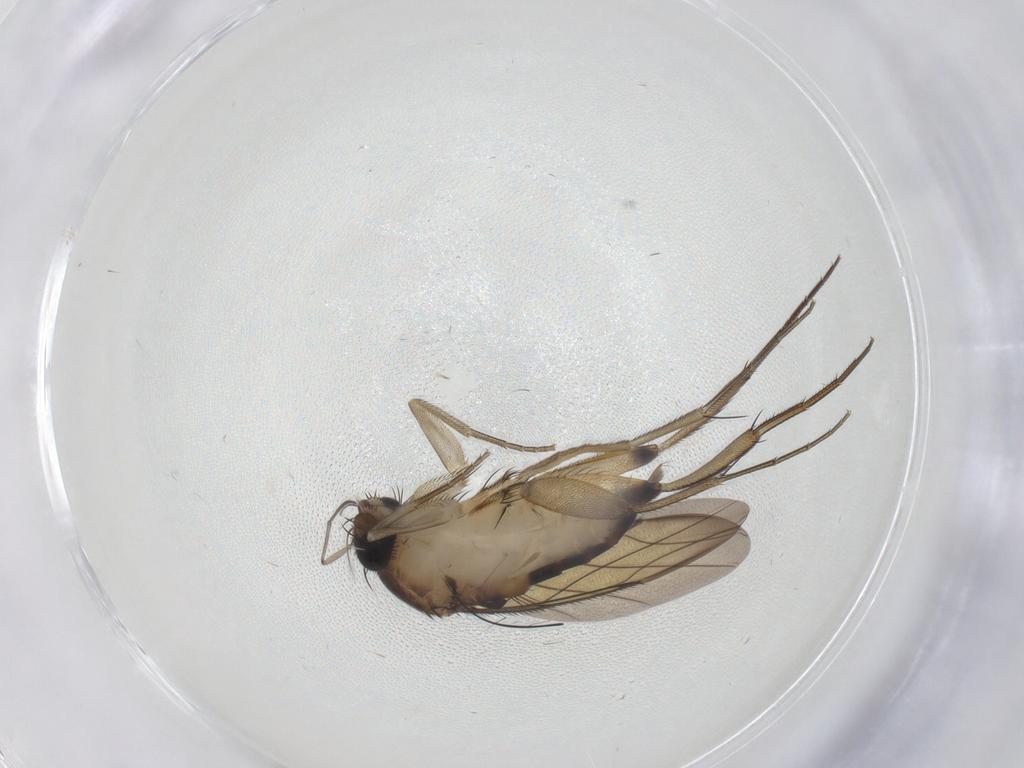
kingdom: Animalia
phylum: Arthropoda
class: Insecta
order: Diptera
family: Phoridae
